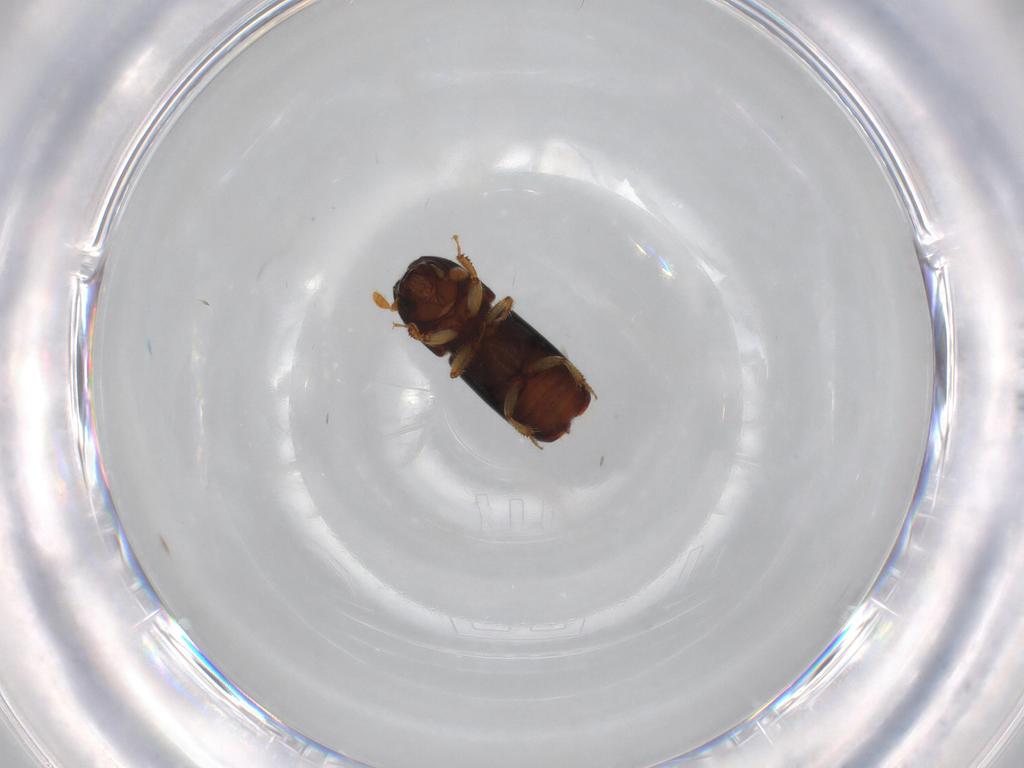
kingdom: Animalia
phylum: Arthropoda
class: Insecta
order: Coleoptera
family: Curculionidae
